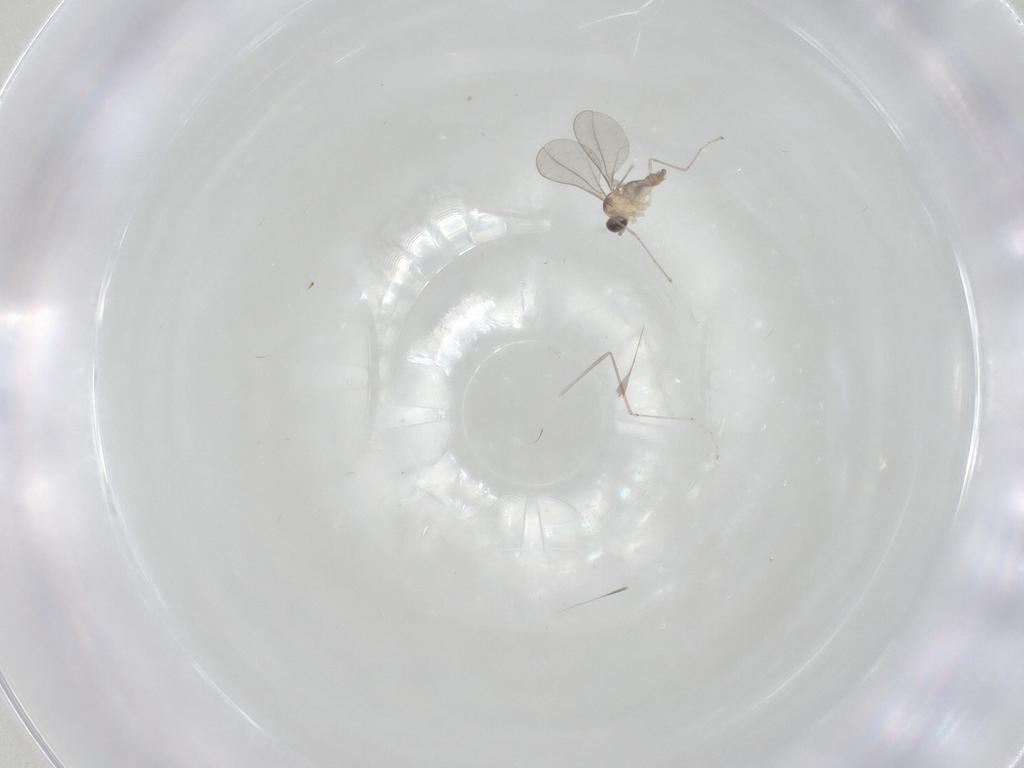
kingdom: Animalia
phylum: Arthropoda
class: Insecta
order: Diptera
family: Cecidomyiidae
